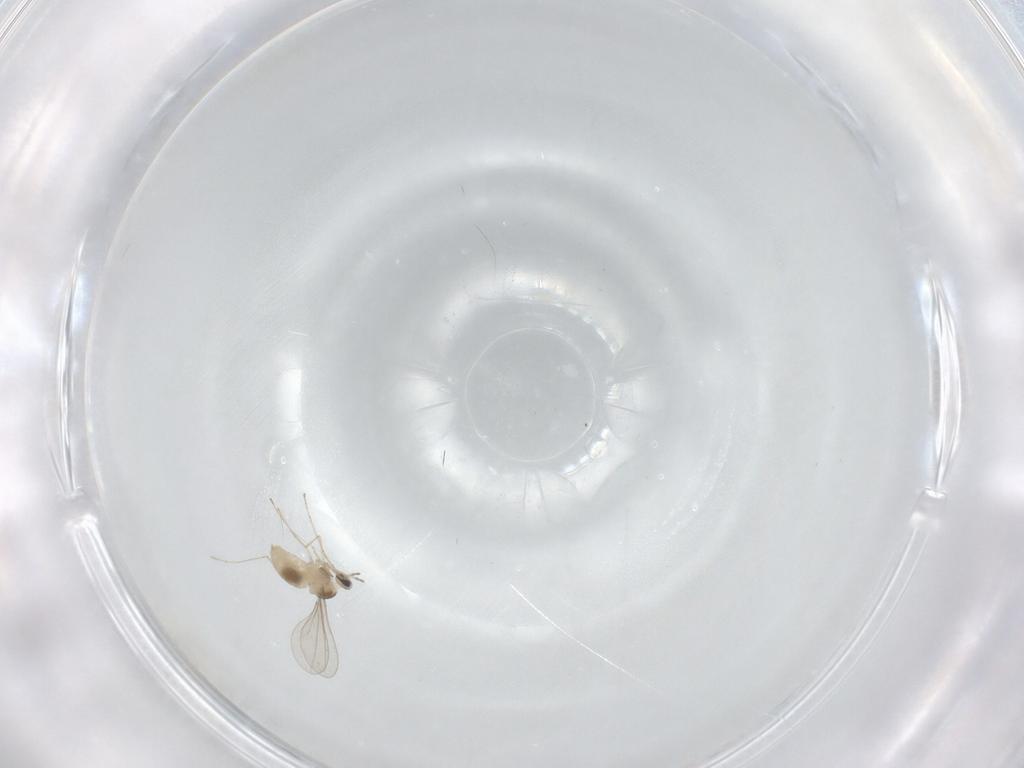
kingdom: Animalia
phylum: Arthropoda
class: Insecta
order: Diptera
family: Cecidomyiidae
